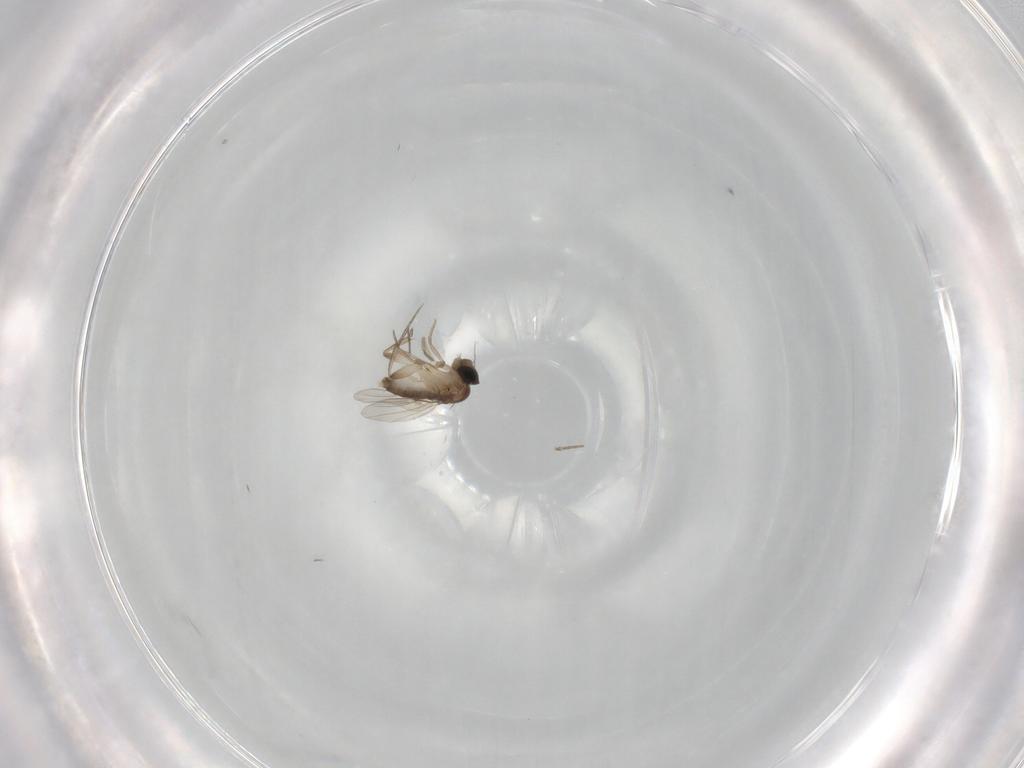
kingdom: Animalia
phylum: Arthropoda
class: Insecta
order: Diptera
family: Phoridae
